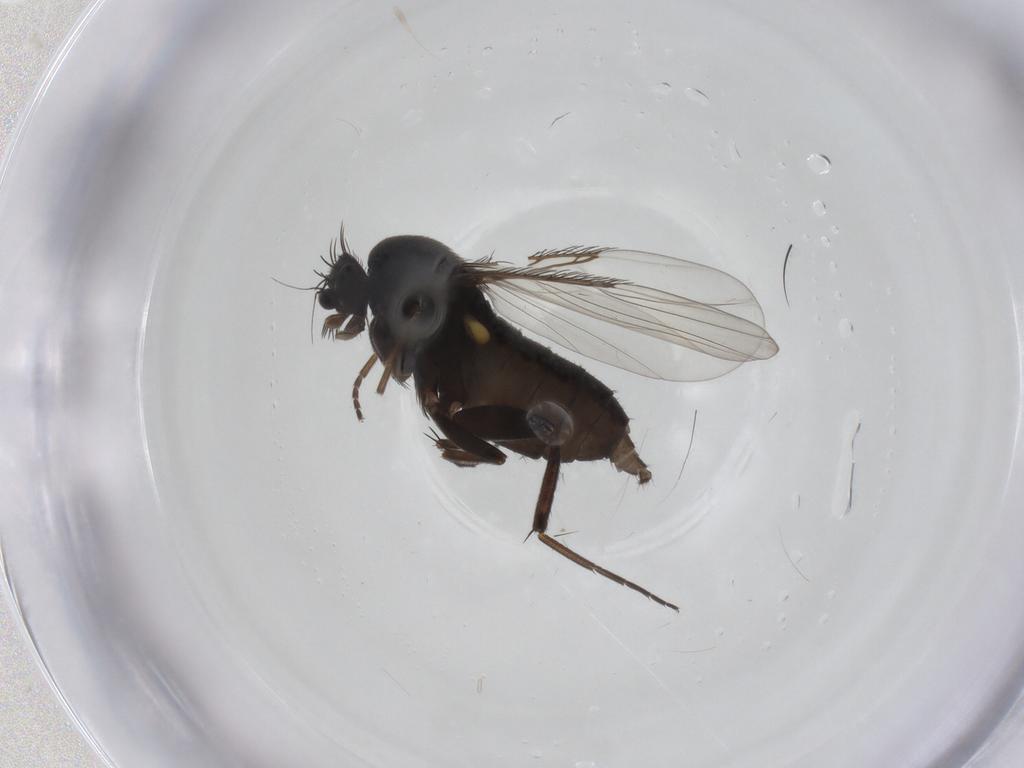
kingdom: Animalia
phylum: Arthropoda
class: Insecta
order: Diptera
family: Phoridae
